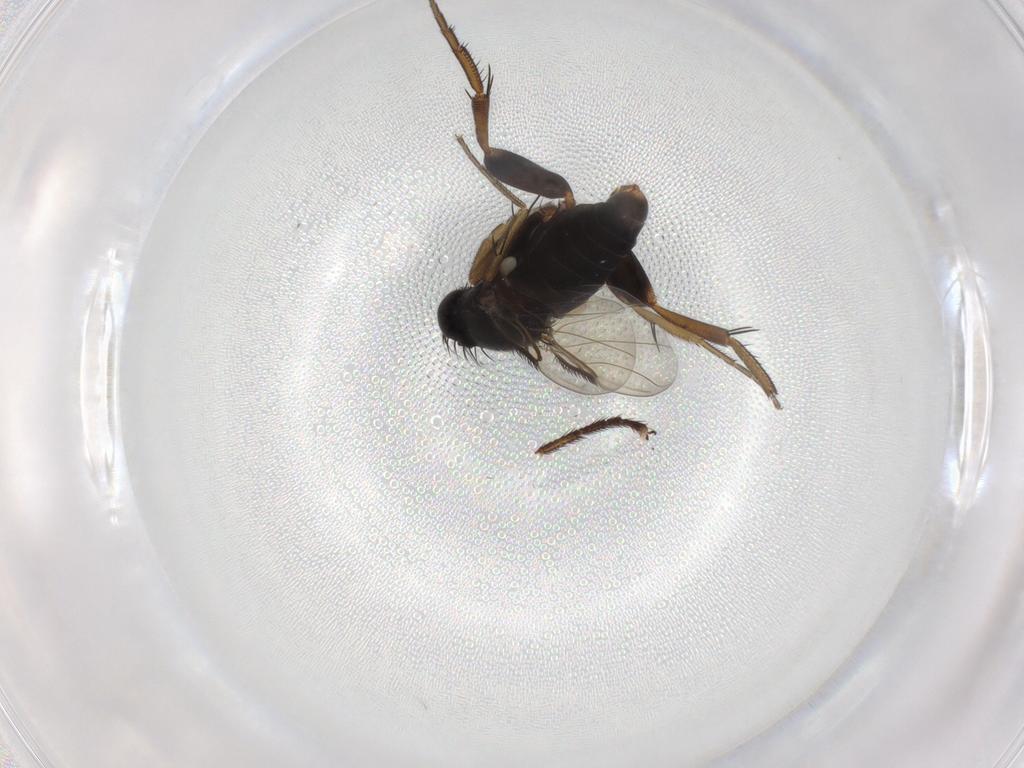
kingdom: Animalia
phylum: Arthropoda
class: Insecta
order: Diptera
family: Phoridae
